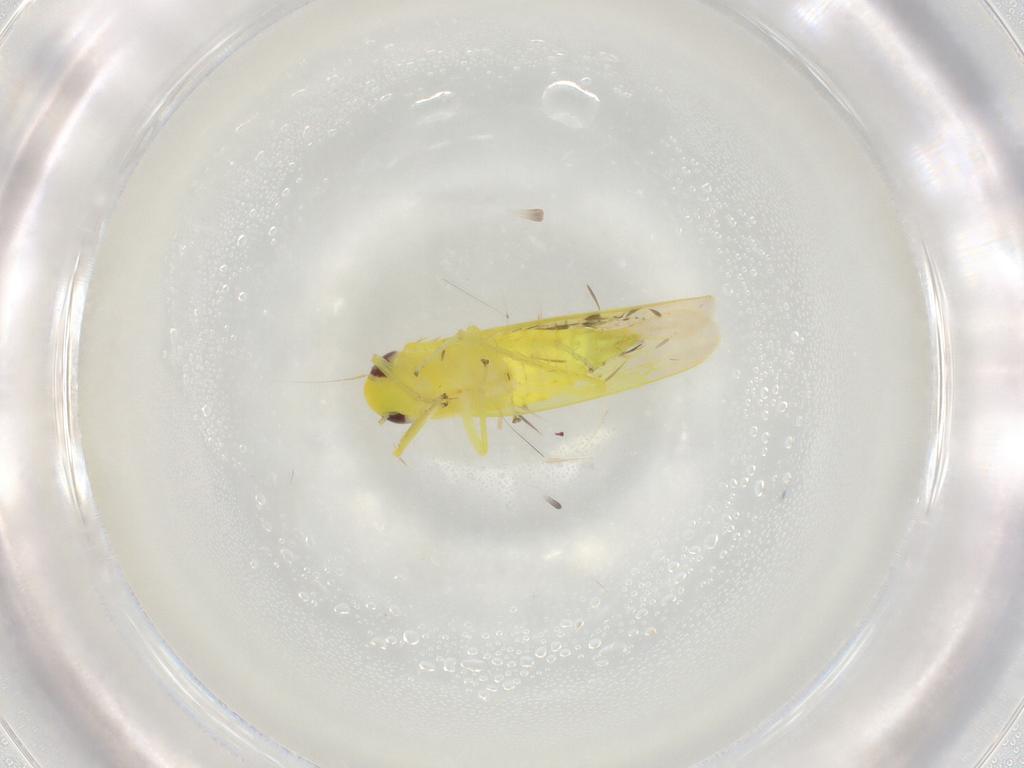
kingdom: Animalia
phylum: Arthropoda
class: Insecta
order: Hemiptera
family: Cicadellidae
